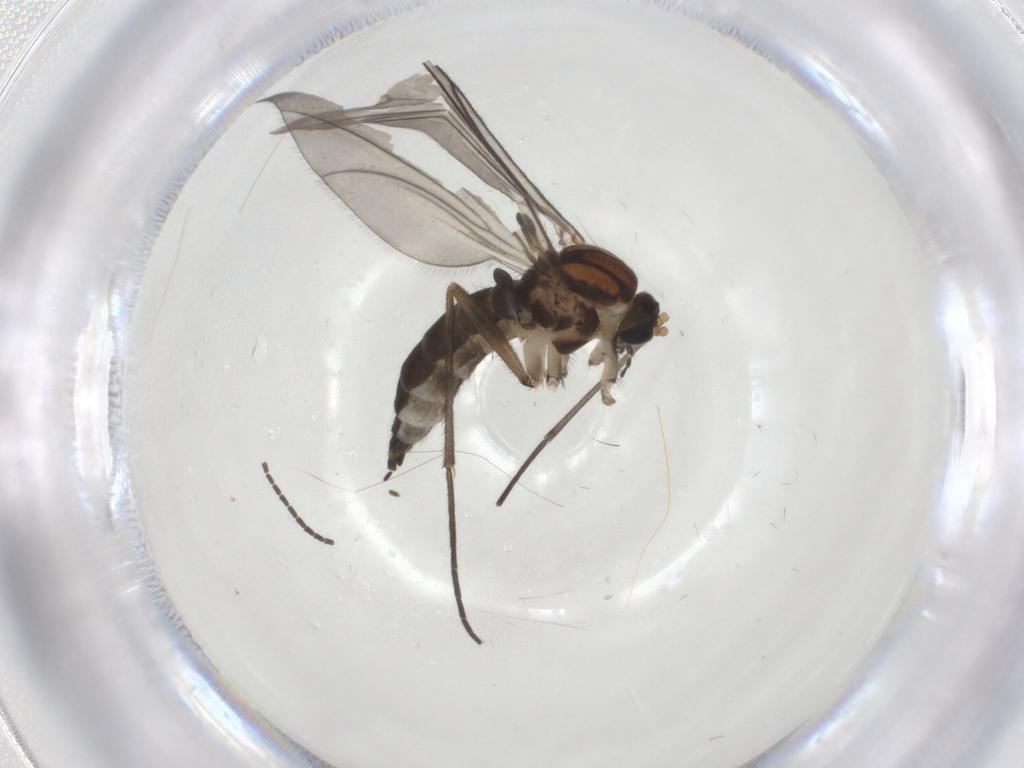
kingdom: Animalia
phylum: Arthropoda
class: Insecta
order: Diptera
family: Sciaridae
